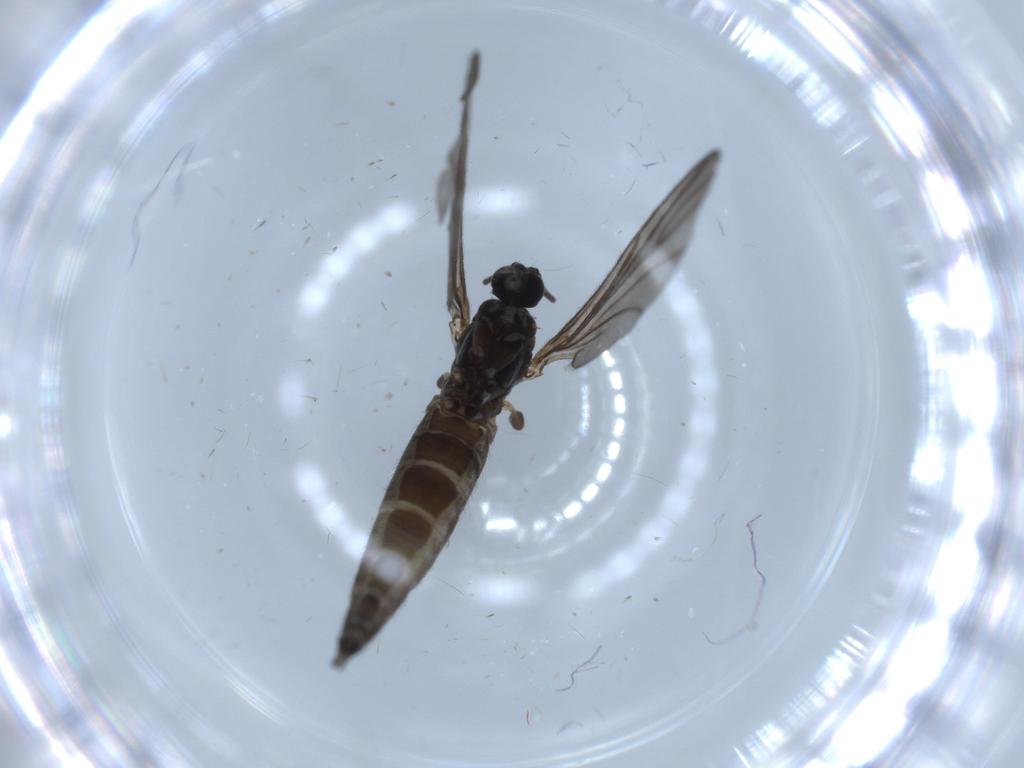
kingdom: Animalia
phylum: Arthropoda
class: Insecta
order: Diptera
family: Sciaridae
